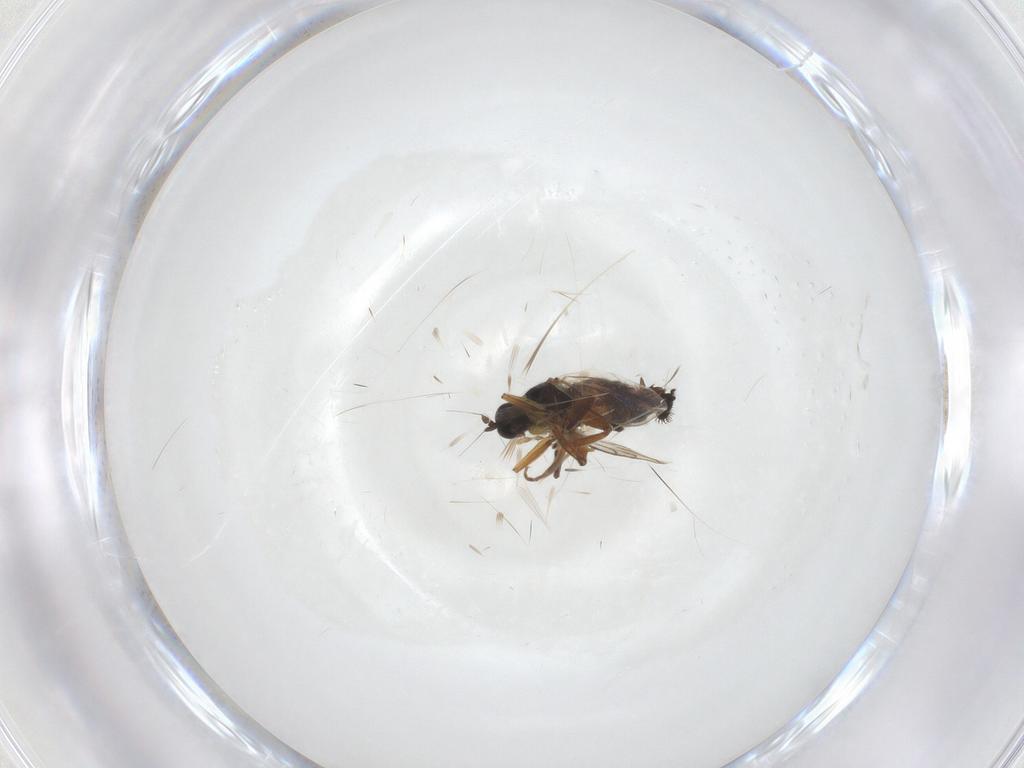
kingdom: Animalia
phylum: Arthropoda
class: Insecta
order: Diptera
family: Hybotidae
